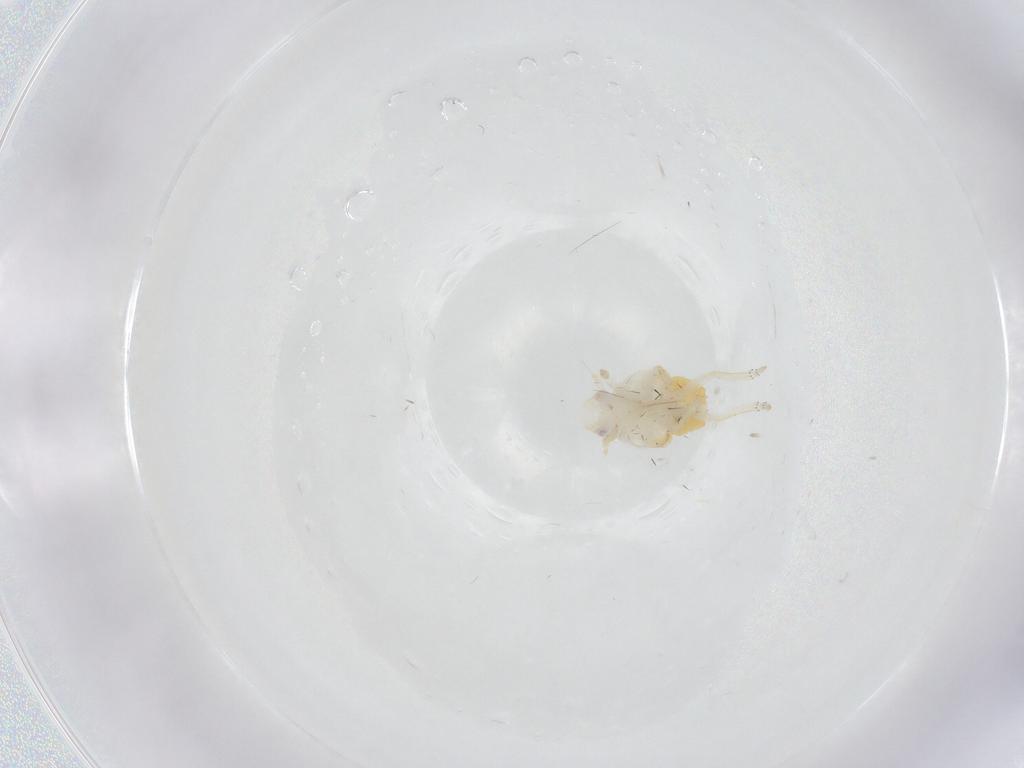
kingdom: Animalia
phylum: Arthropoda
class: Insecta
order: Hemiptera
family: Fulgoroidea_incertae_sedis
